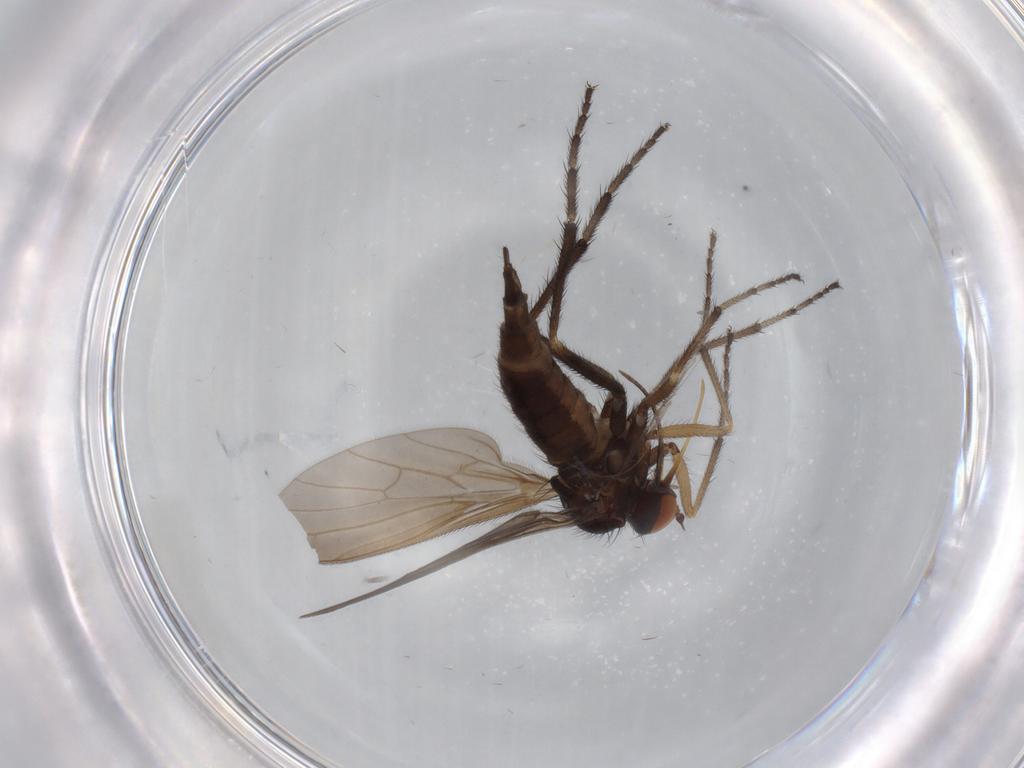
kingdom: Animalia
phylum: Arthropoda
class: Insecta
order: Diptera
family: Empididae
